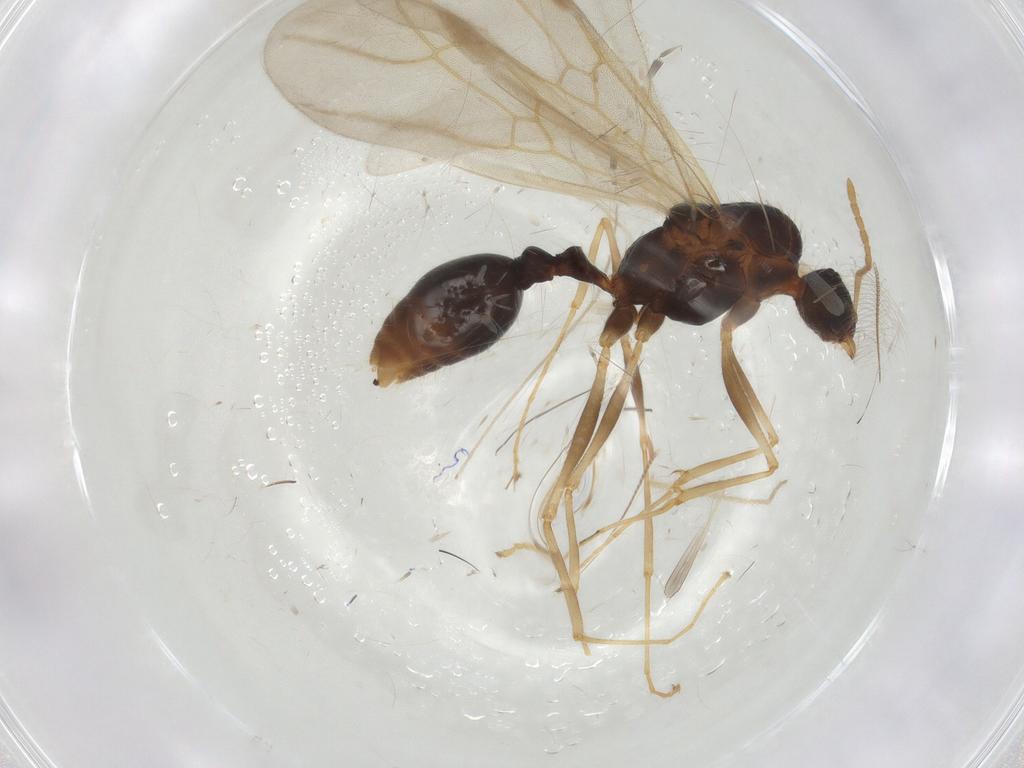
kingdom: Animalia
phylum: Arthropoda
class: Insecta
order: Hymenoptera
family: Formicidae
